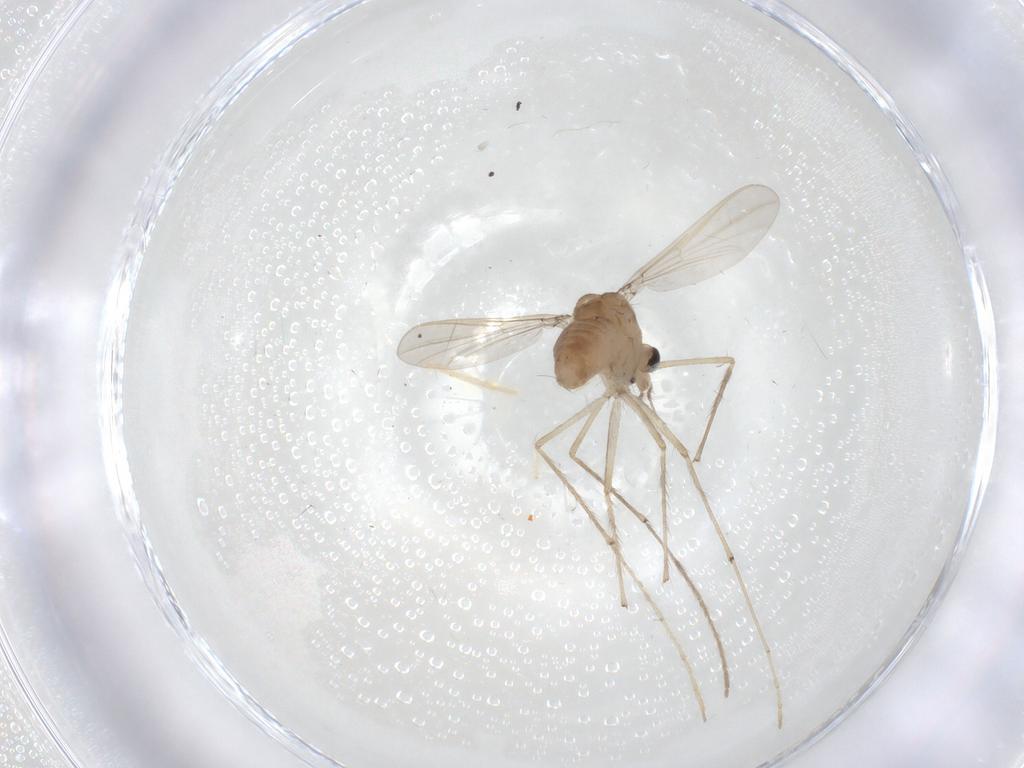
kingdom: Animalia
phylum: Arthropoda
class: Insecta
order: Diptera
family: Chironomidae
